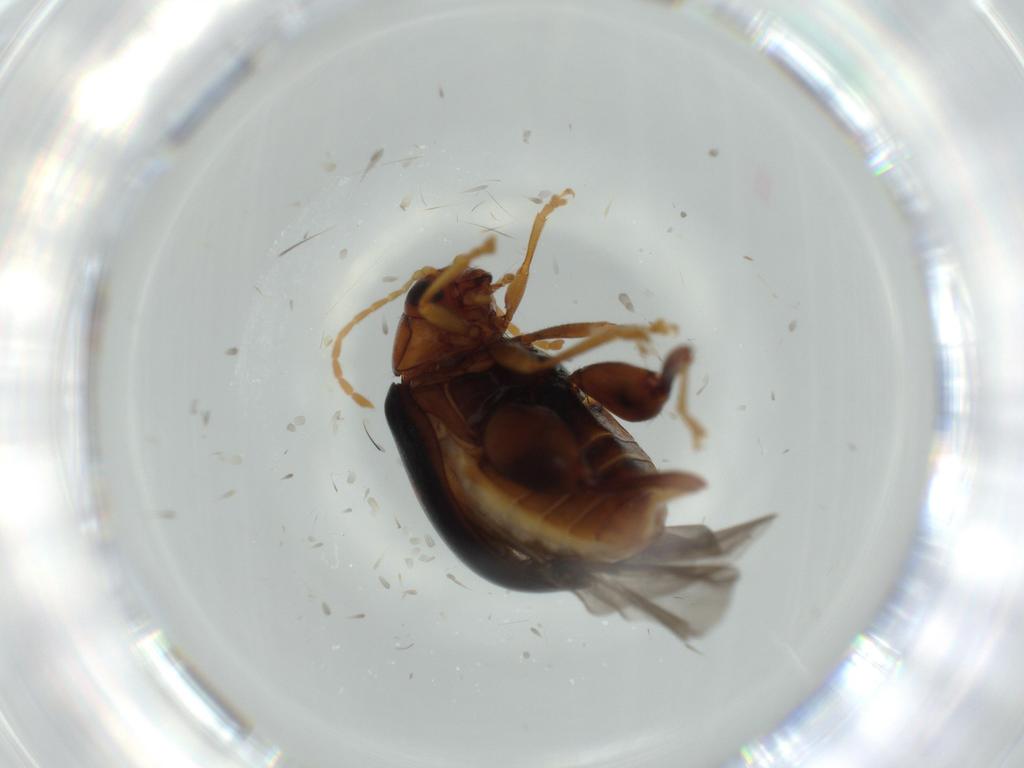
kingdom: Animalia
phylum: Arthropoda
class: Insecta
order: Coleoptera
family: Chrysomelidae
